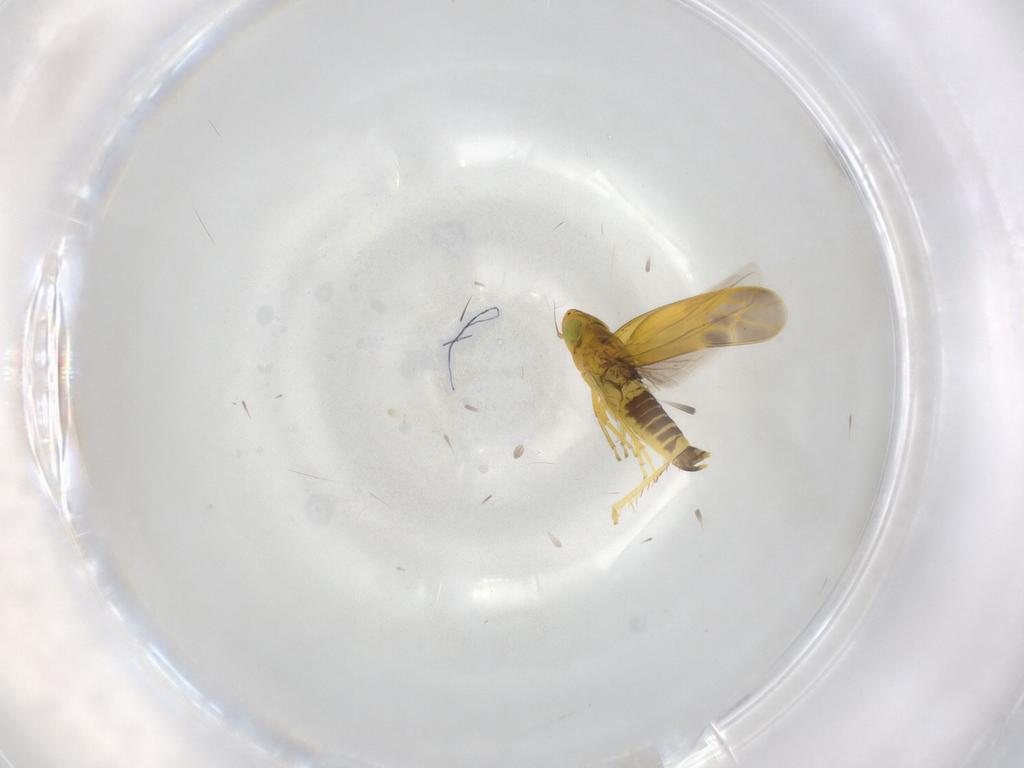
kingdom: Animalia
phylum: Arthropoda
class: Insecta
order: Hemiptera
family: Cicadellidae
